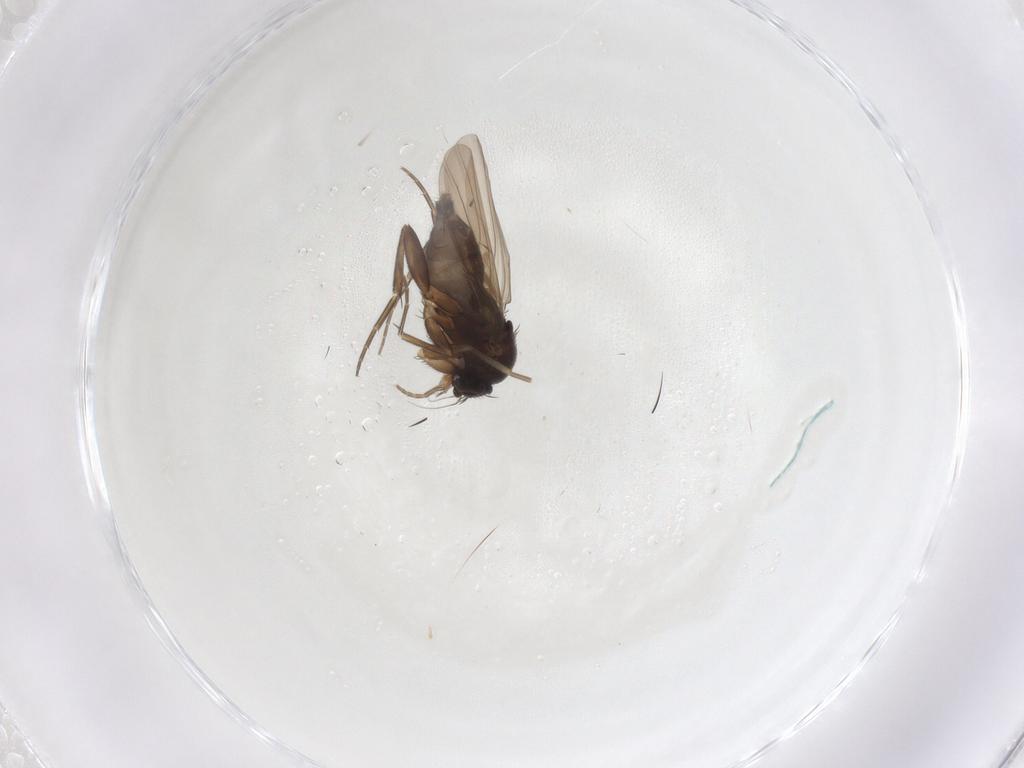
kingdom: Animalia
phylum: Arthropoda
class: Insecta
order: Diptera
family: Phoridae
